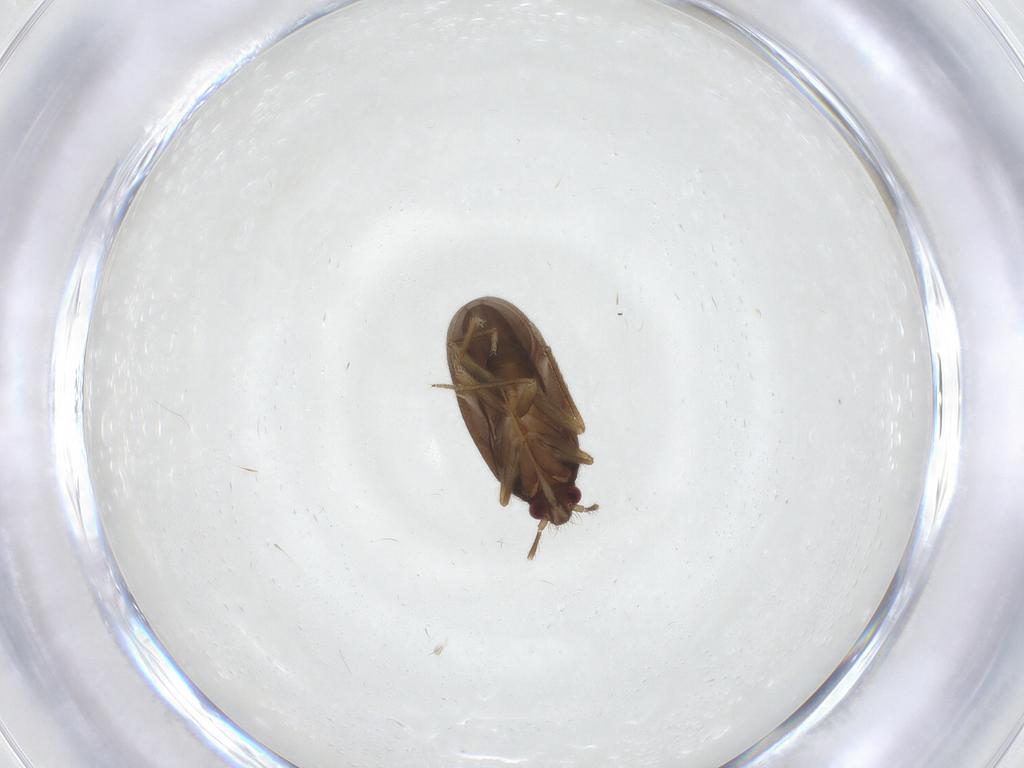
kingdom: Animalia
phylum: Arthropoda
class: Insecta
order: Hemiptera
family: Ceratocombidae
